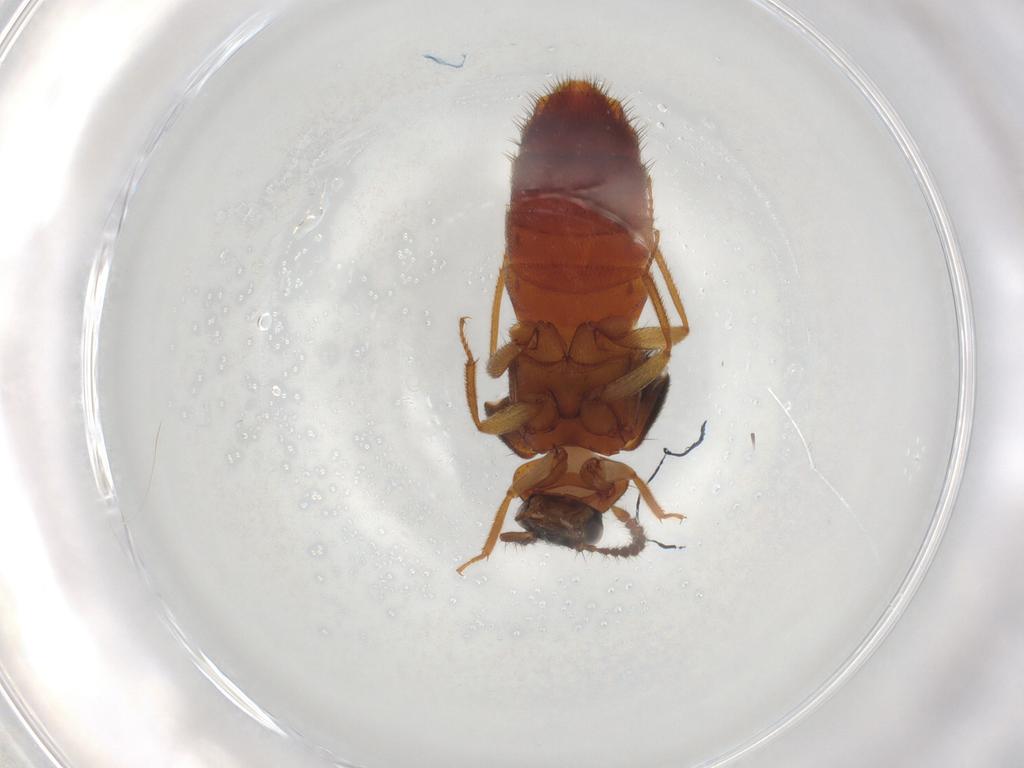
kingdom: Animalia
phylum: Arthropoda
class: Insecta
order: Coleoptera
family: Staphylinidae
